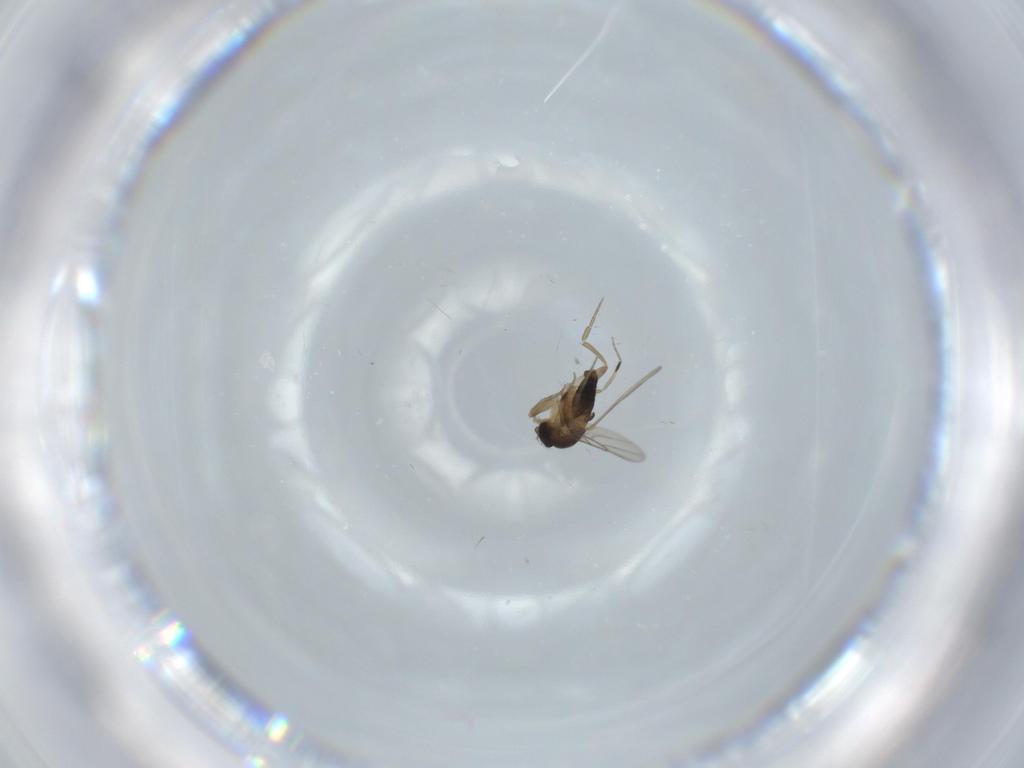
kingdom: Animalia
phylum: Arthropoda
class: Insecta
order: Diptera
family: Phoridae
